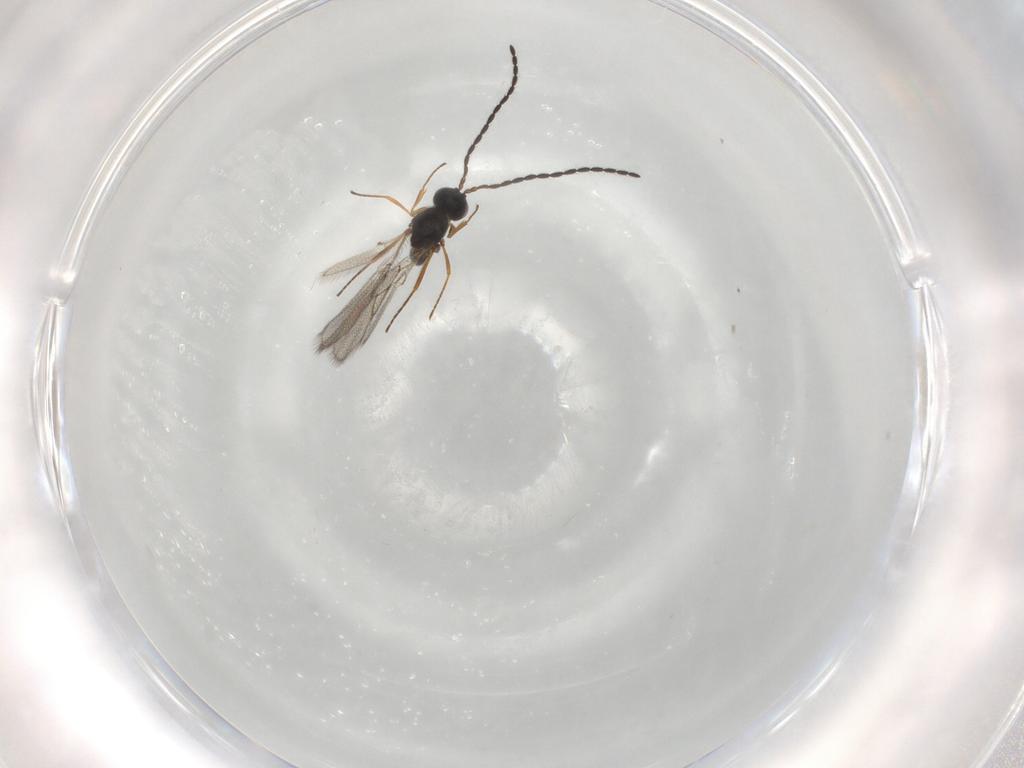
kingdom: Animalia
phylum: Arthropoda
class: Insecta
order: Hymenoptera
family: Figitidae
